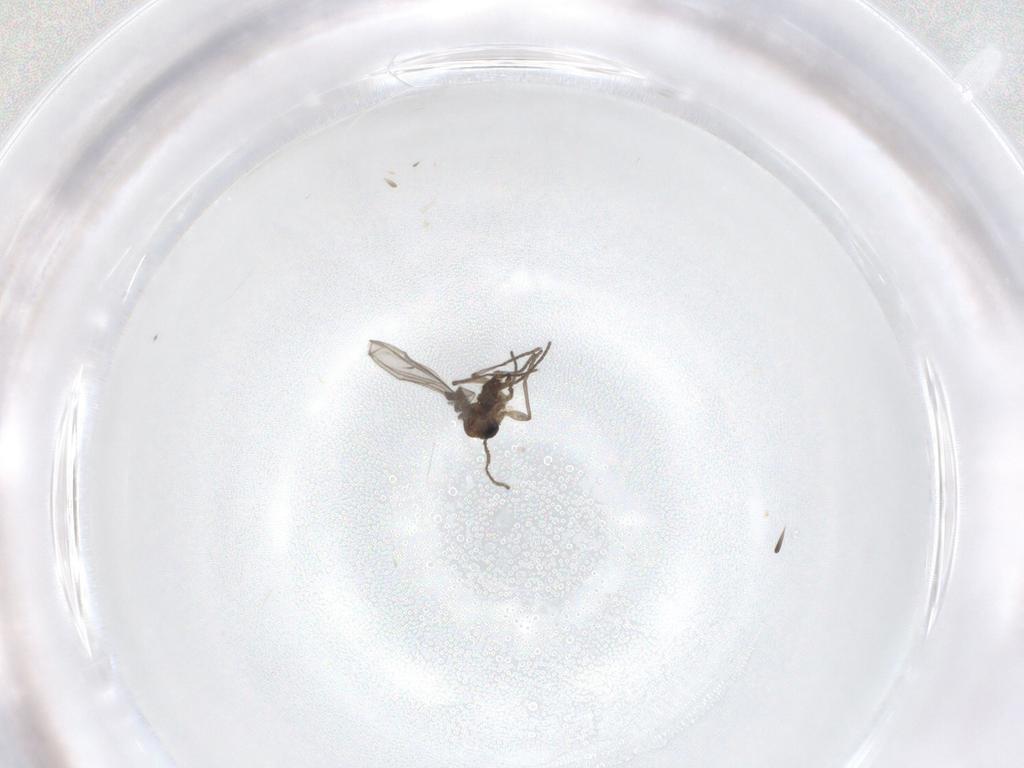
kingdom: Animalia
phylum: Arthropoda
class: Insecta
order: Diptera
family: Sciaridae
